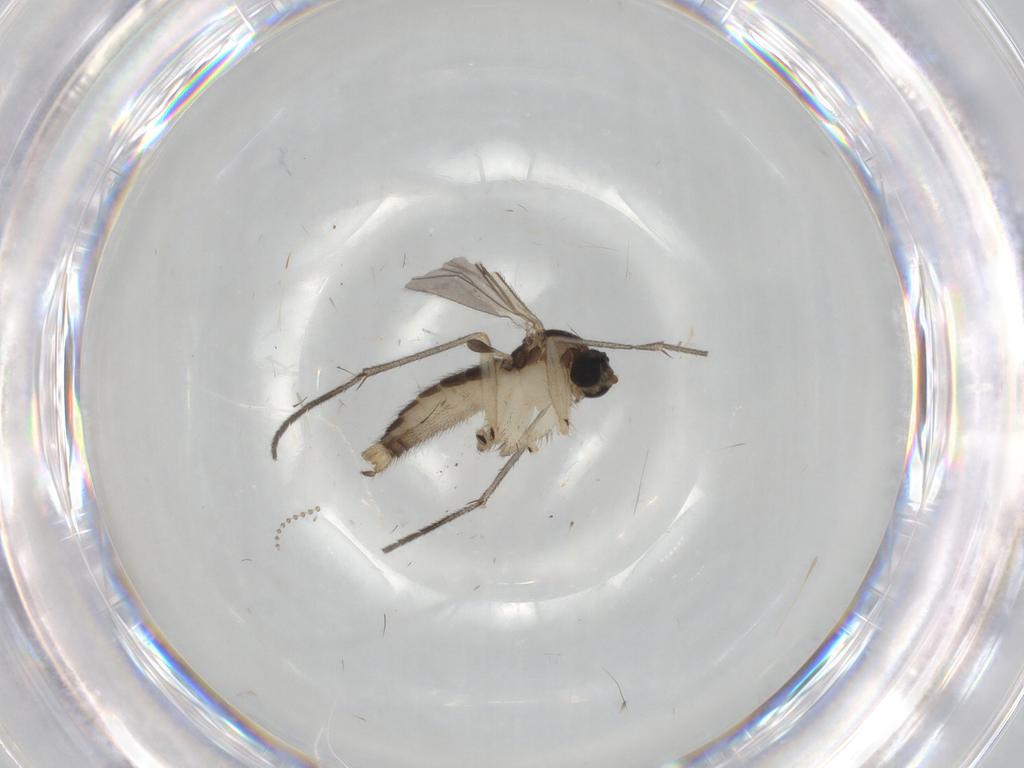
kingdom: Animalia
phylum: Arthropoda
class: Insecta
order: Diptera
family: Sciaridae
